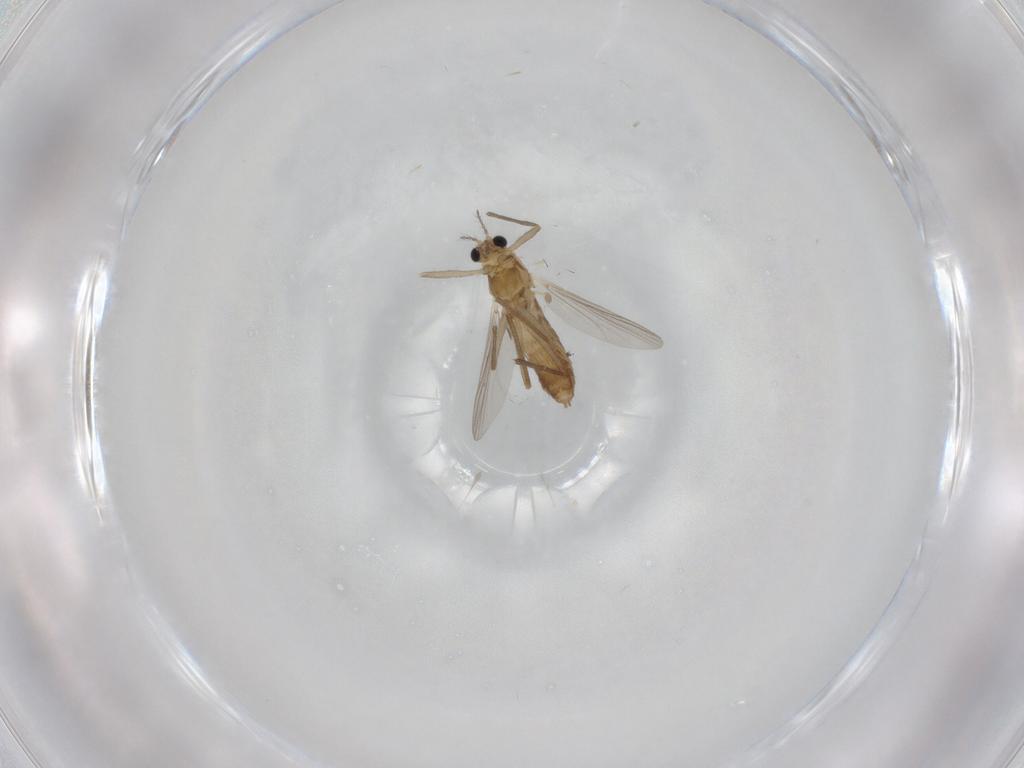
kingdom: Animalia
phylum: Arthropoda
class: Insecta
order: Diptera
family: Chironomidae
